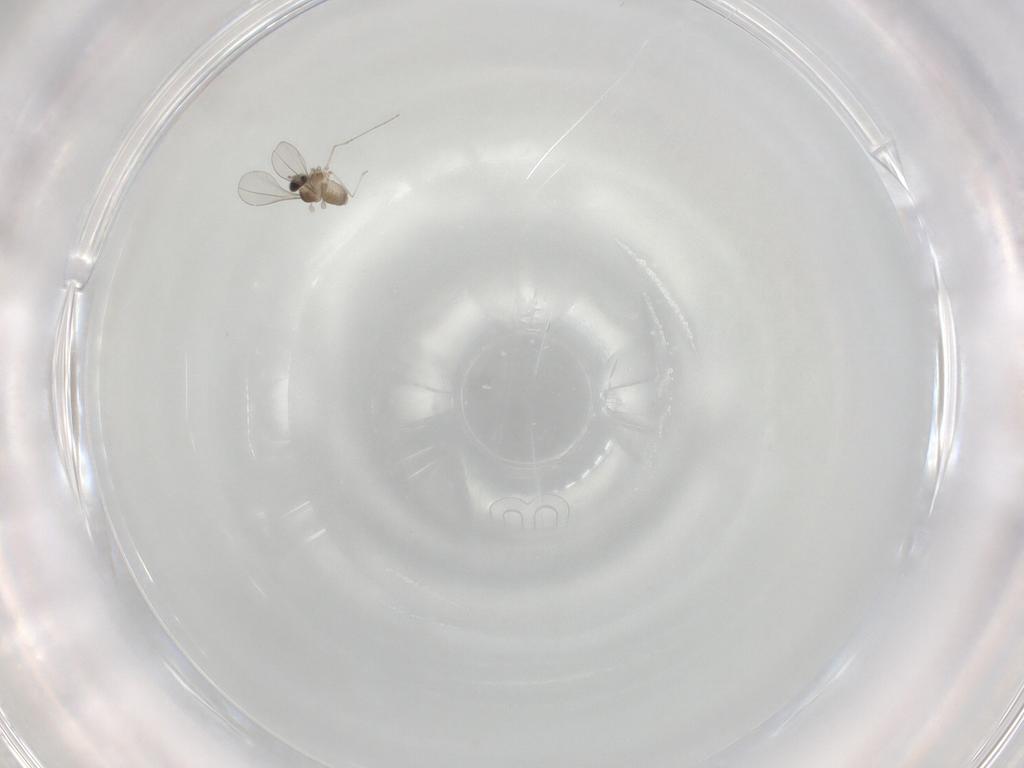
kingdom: Animalia
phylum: Arthropoda
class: Insecta
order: Diptera
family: Cecidomyiidae
